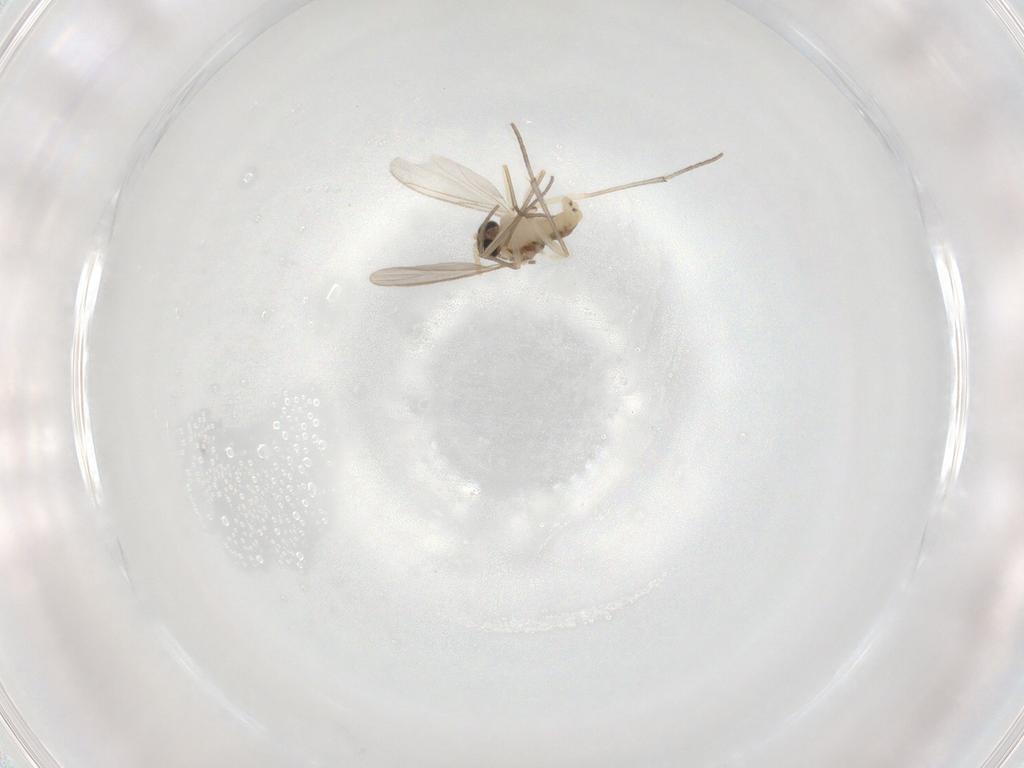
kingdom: Animalia
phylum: Arthropoda
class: Insecta
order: Diptera
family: Sciaridae
